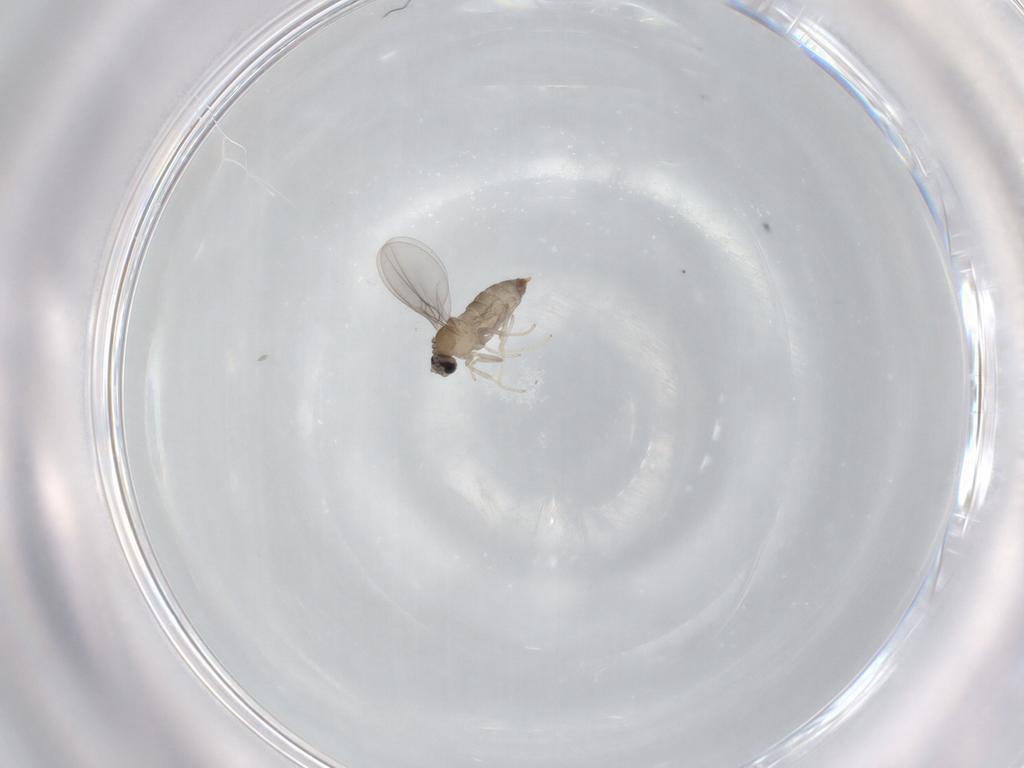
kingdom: Animalia
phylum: Arthropoda
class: Insecta
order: Diptera
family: Cecidomyiidae
